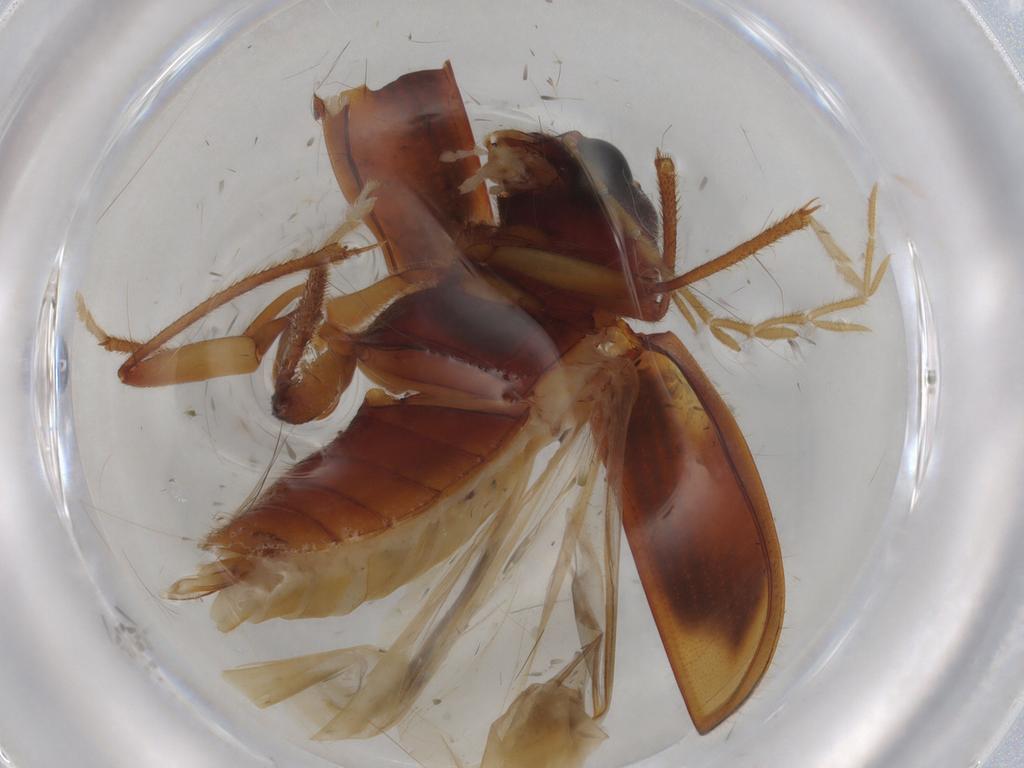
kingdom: Animalia
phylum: Arthropoda
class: Insecta
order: Coleoptera
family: Ptilodactylidae
